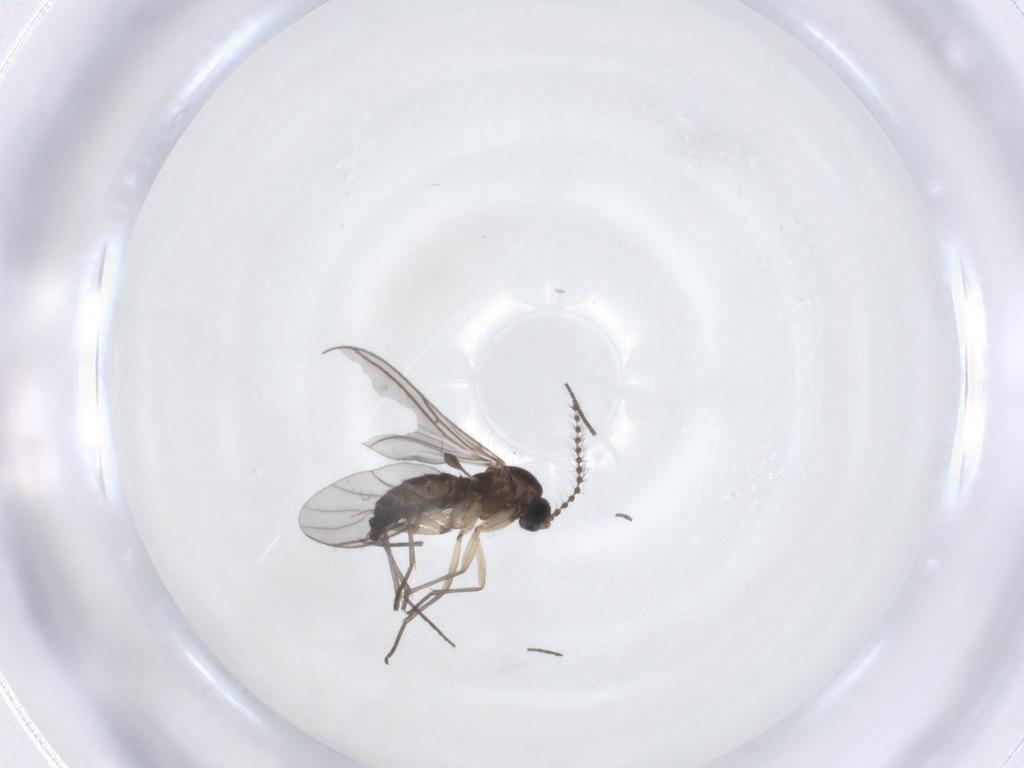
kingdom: Animalia
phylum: Arthropoda
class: Insecta
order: Diptera
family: Sciaridae
